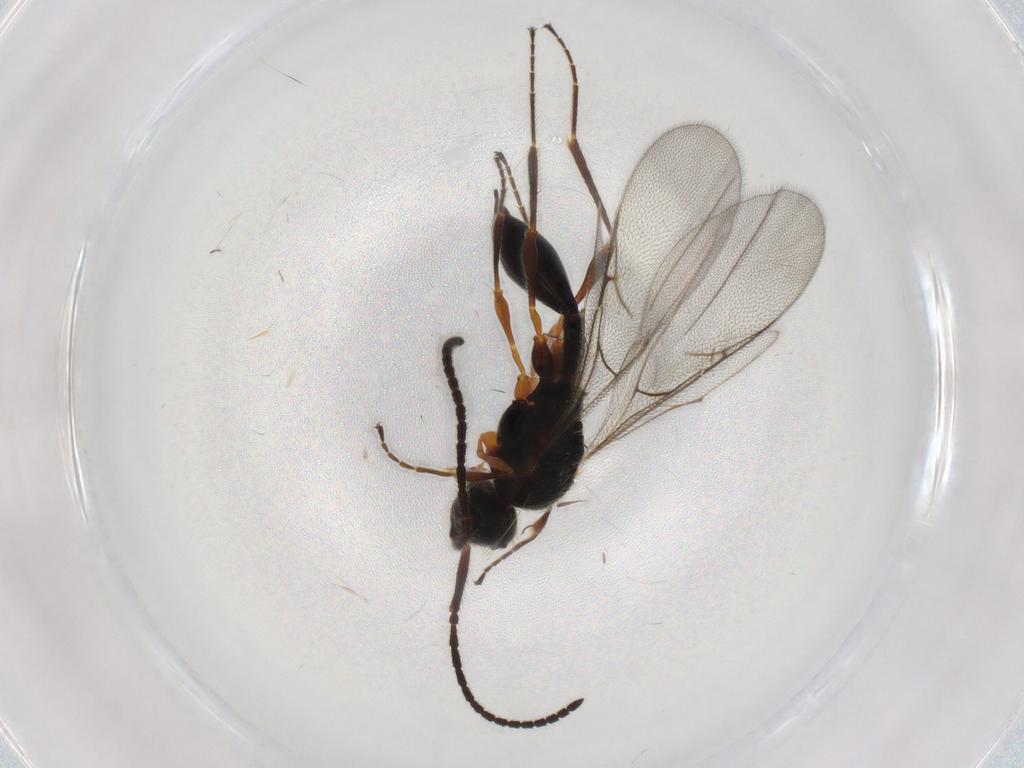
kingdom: Animalia
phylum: Arthropoda
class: Insecta
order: Hymenoptera
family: Diapriidae
